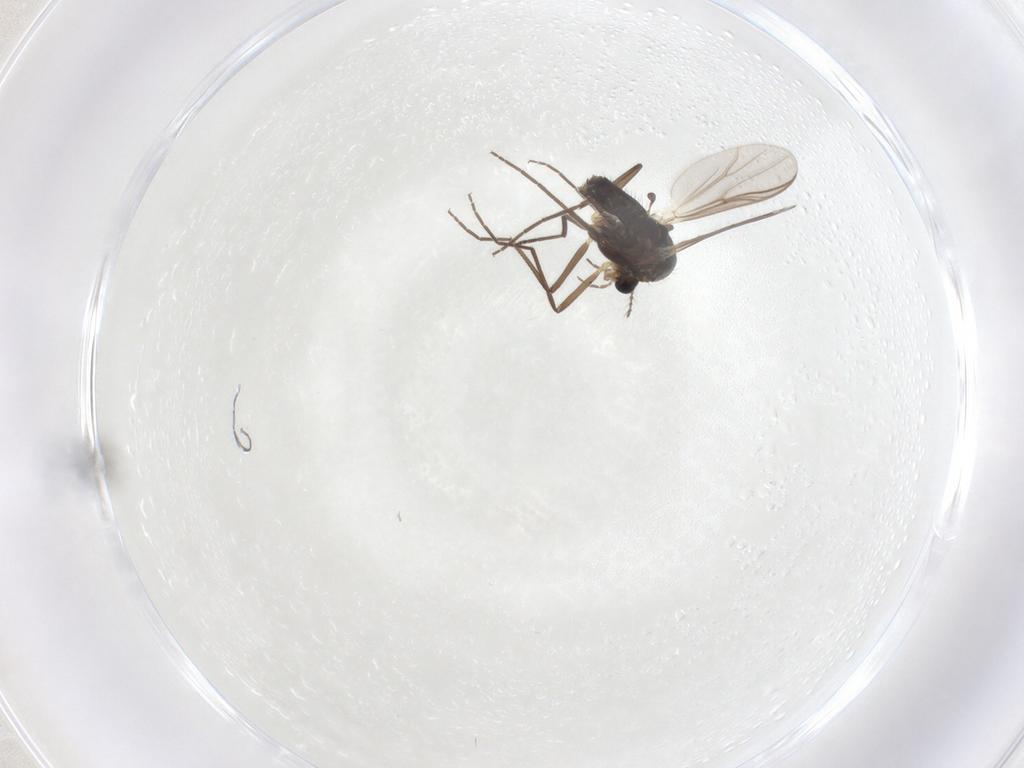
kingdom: Animalia
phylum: Arthropoda
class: Insecta
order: Diptera
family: Chironomidae
